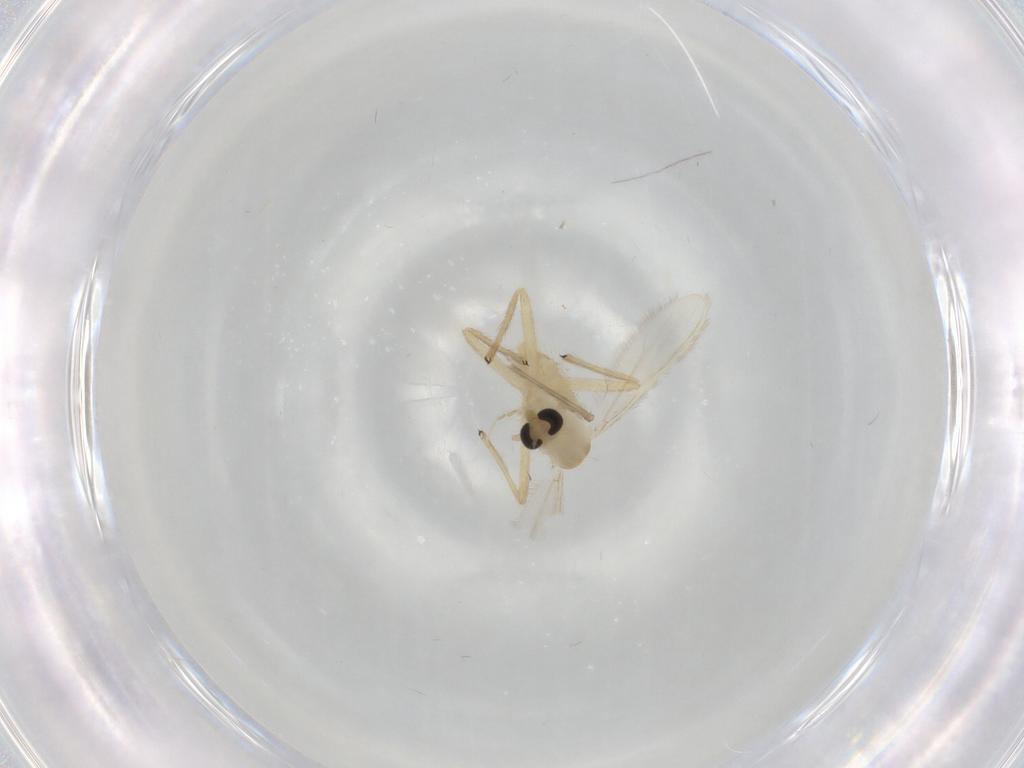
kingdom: Animalia
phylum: Arthropoda
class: Insecta
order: Diptera
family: Chironomidae
